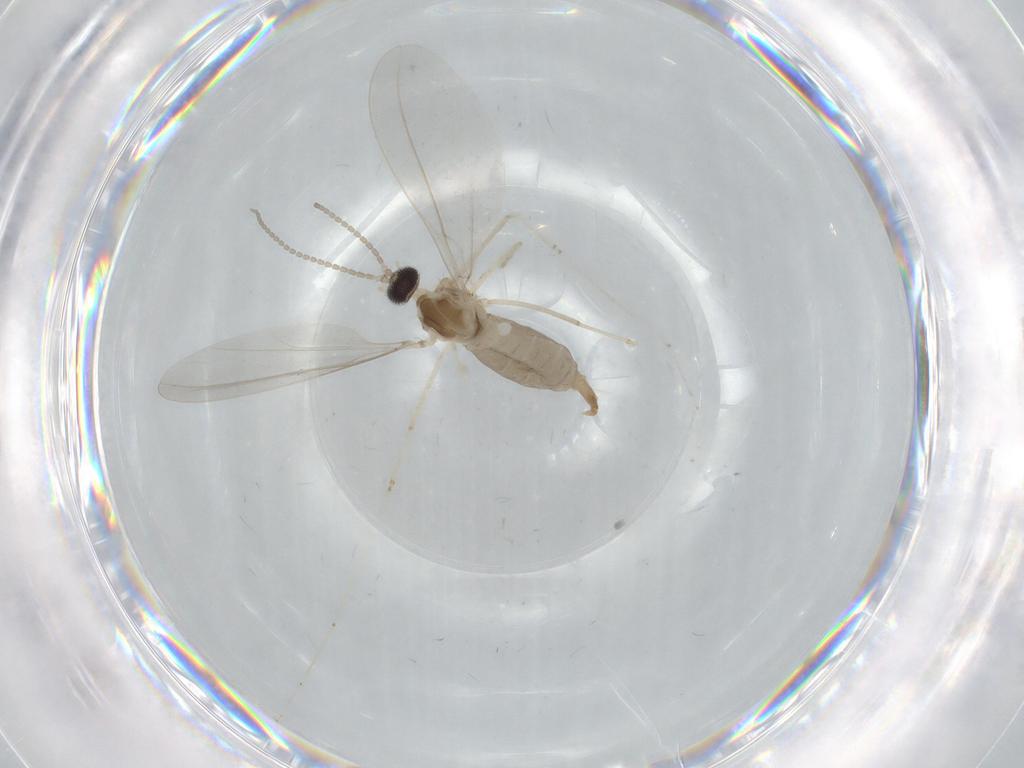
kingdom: Animalia
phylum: Arthropoda
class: Insecta
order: Diptera
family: Cecidomyiidae
